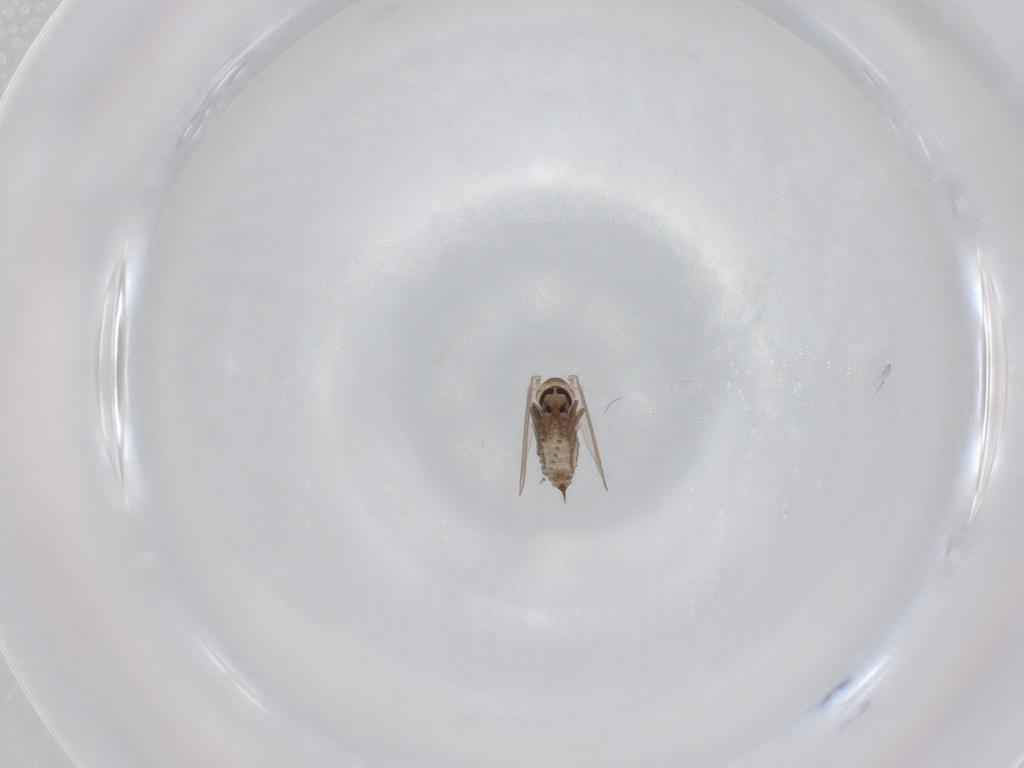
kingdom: Animalia
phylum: Arthropoda
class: Insecta
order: Diptera
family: Psychodidae
